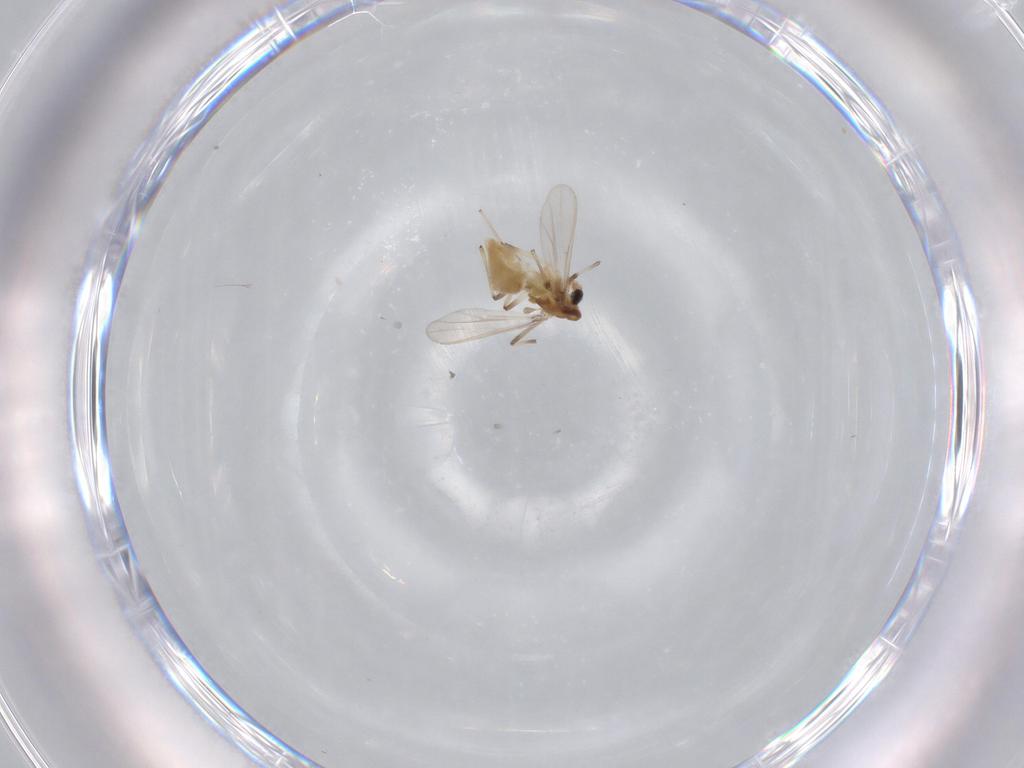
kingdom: Animalia
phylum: Arthropoda
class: Insecta
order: Diptera
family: Chironomidae
